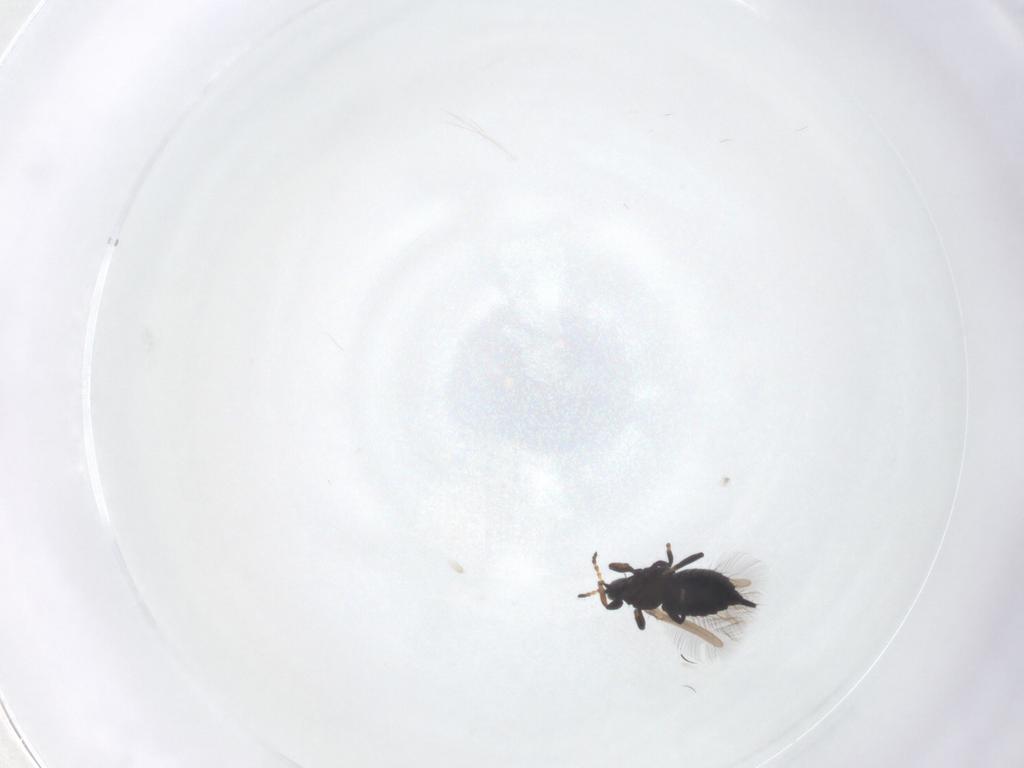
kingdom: Animalia
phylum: Arthropoda
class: Insecta
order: Thysanoptera
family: Phlaeothripidae
